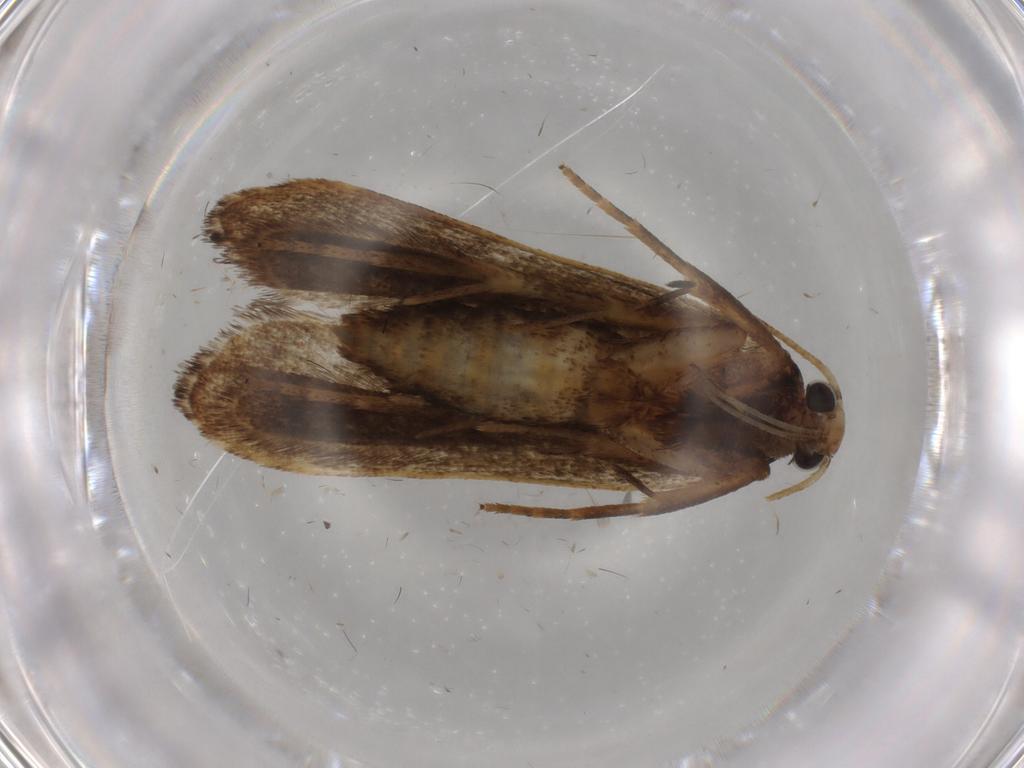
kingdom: Animalia
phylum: Arthropoda
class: Insecta
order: Lepidoptera
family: Gelechiidae
